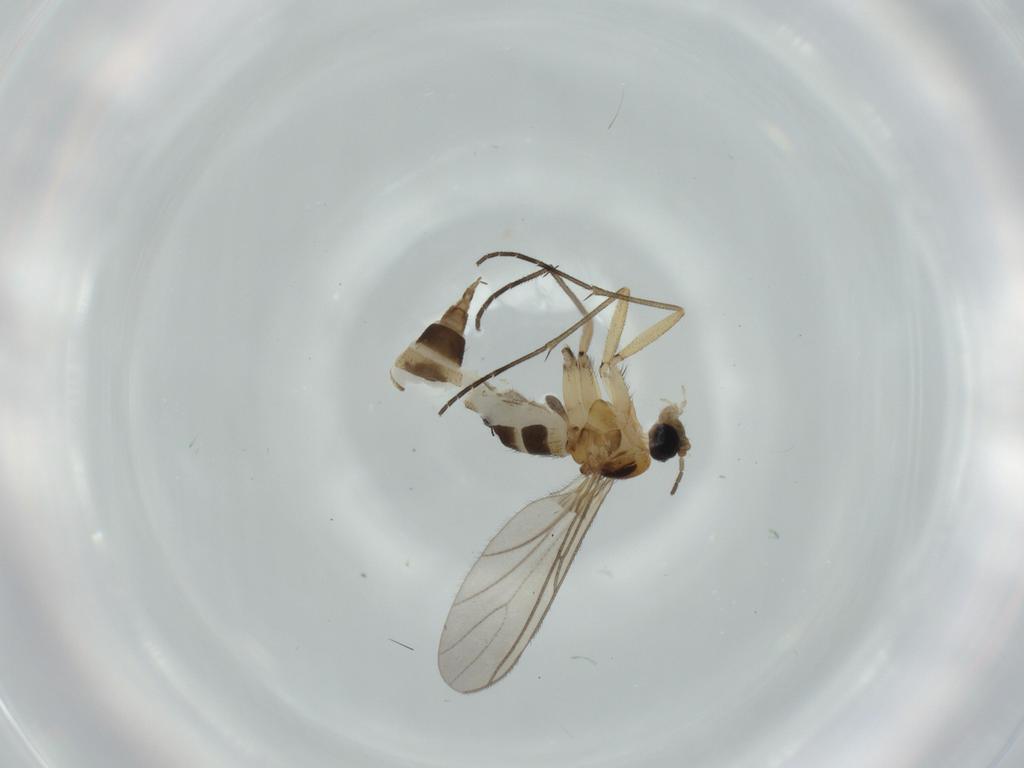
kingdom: Animalia
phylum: Arthropoda
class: Insecta
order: Diptera
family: Sciaridae
